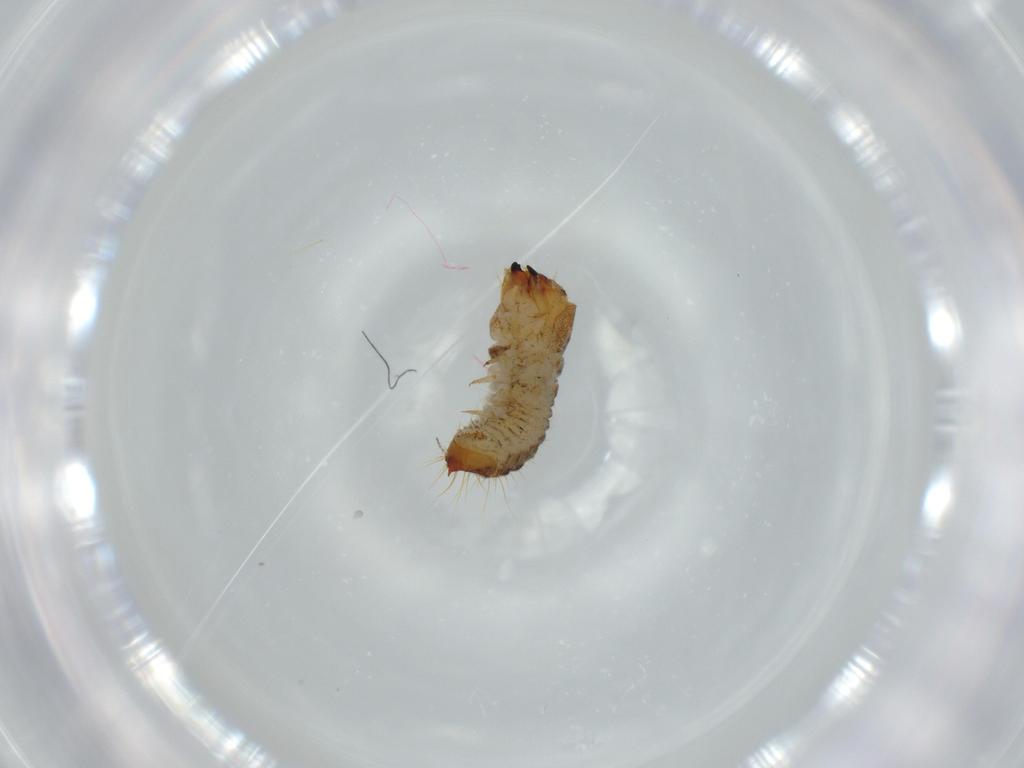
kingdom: Animalia
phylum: Arthropoda
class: Insecta
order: Coleoptera
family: Lymexylidae
